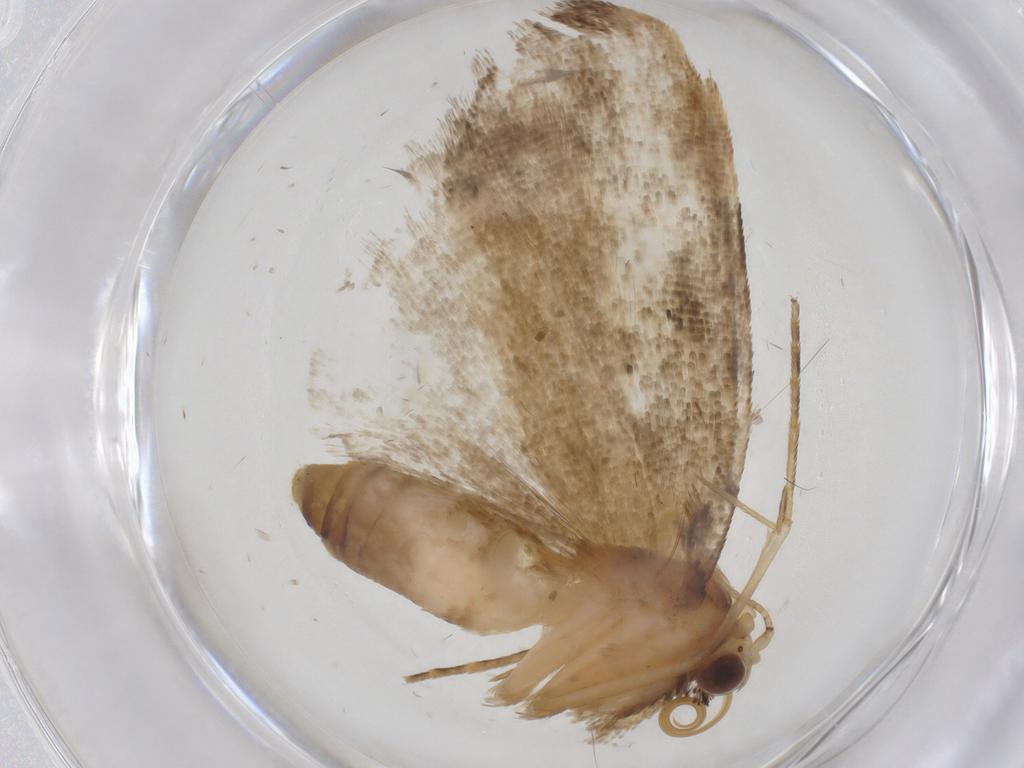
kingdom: Animalia
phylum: Arthropoda
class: Insecta
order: Lepidoptera
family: Erebidae
